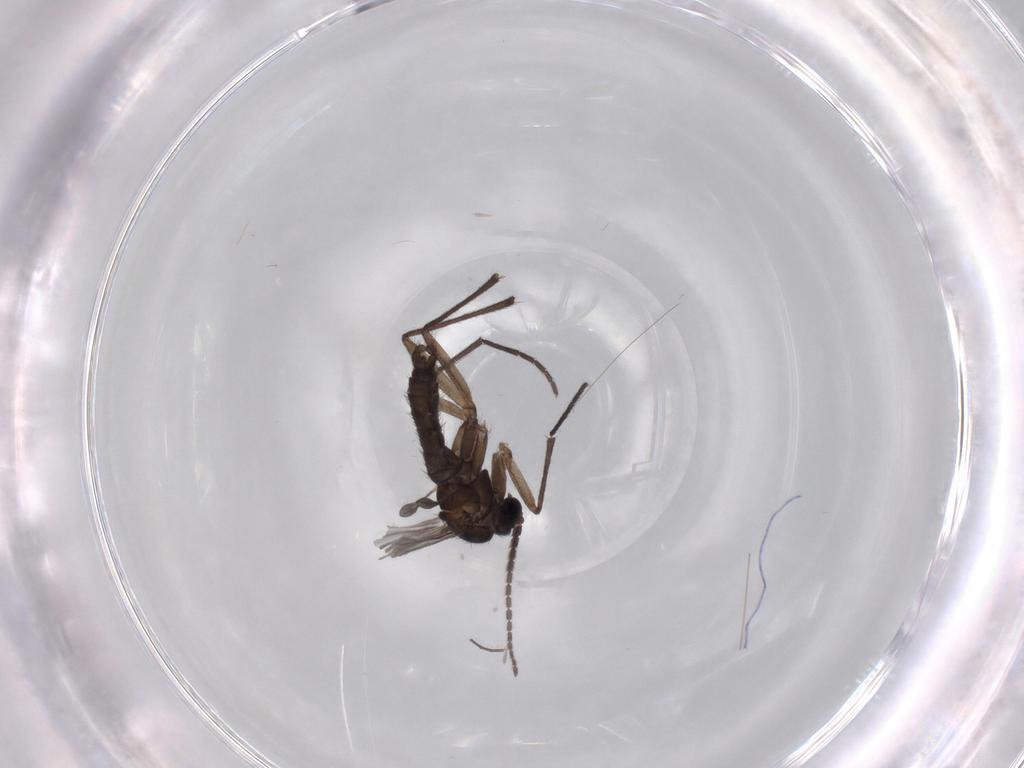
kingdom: Animalia
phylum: Arthropoda
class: Insecta
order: Diptera
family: Sciaridae
